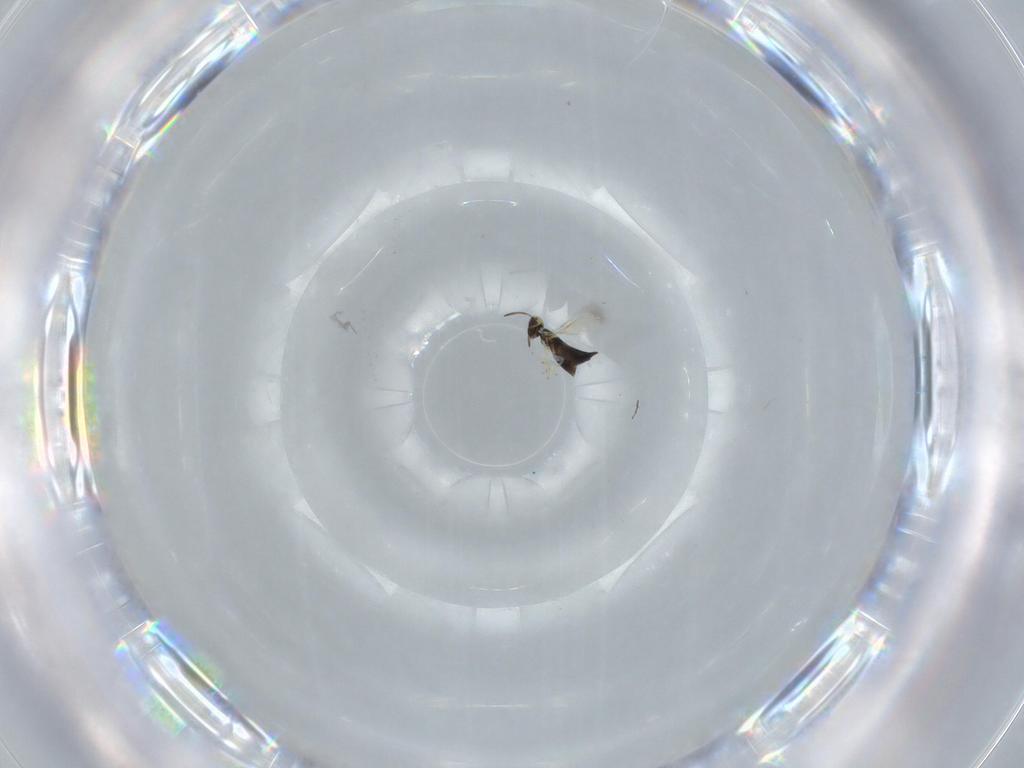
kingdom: Animalia
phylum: Arthropoda
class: Insecta
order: Hymenoptera
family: Signiphoridae
